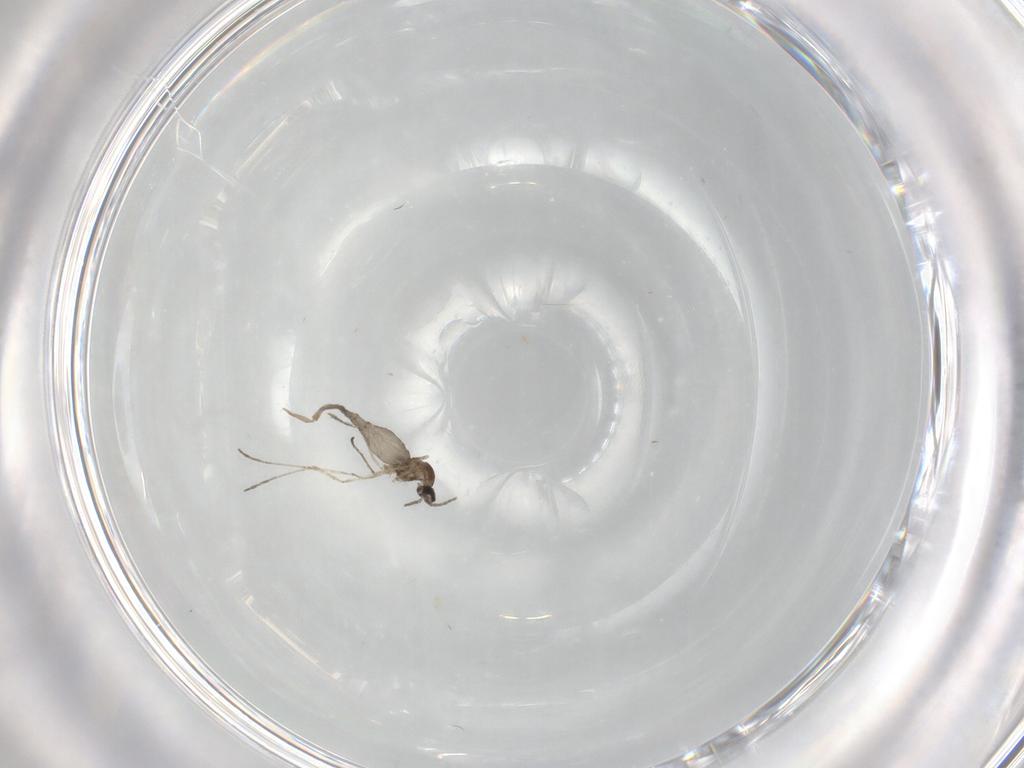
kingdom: Animalia
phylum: Arthropoda
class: Insecta
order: Diptera
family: Cecidomyiidae
